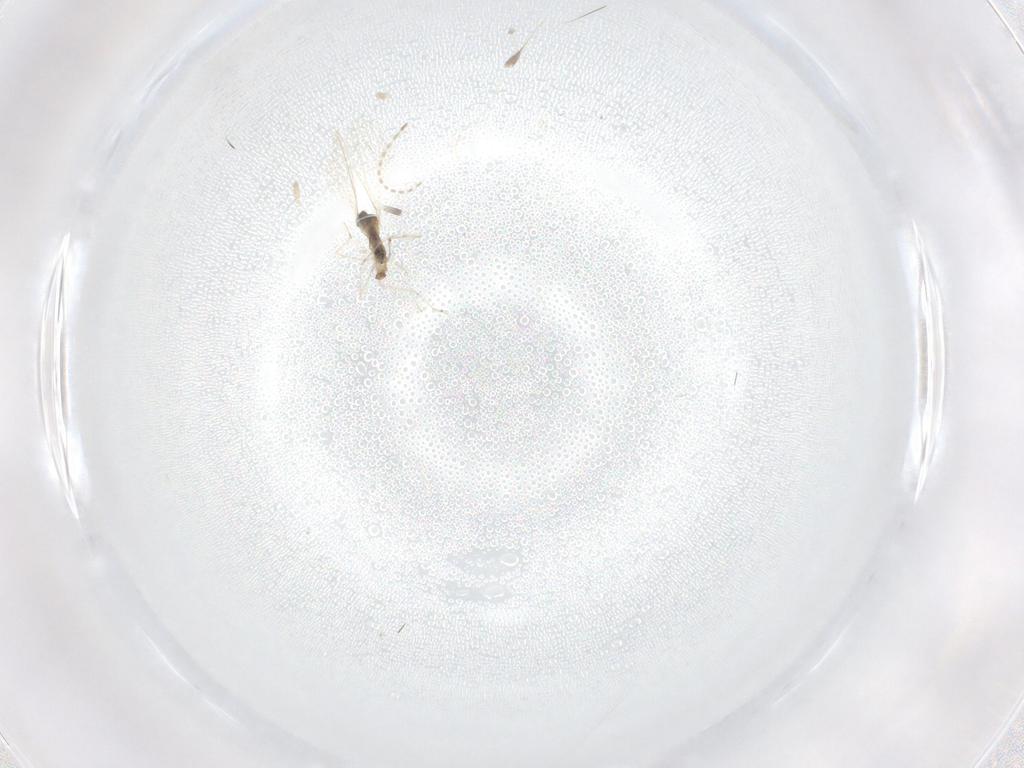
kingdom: Animalia
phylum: Arthropoda
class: Insecta
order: Diptera
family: Cecidomyiidae
